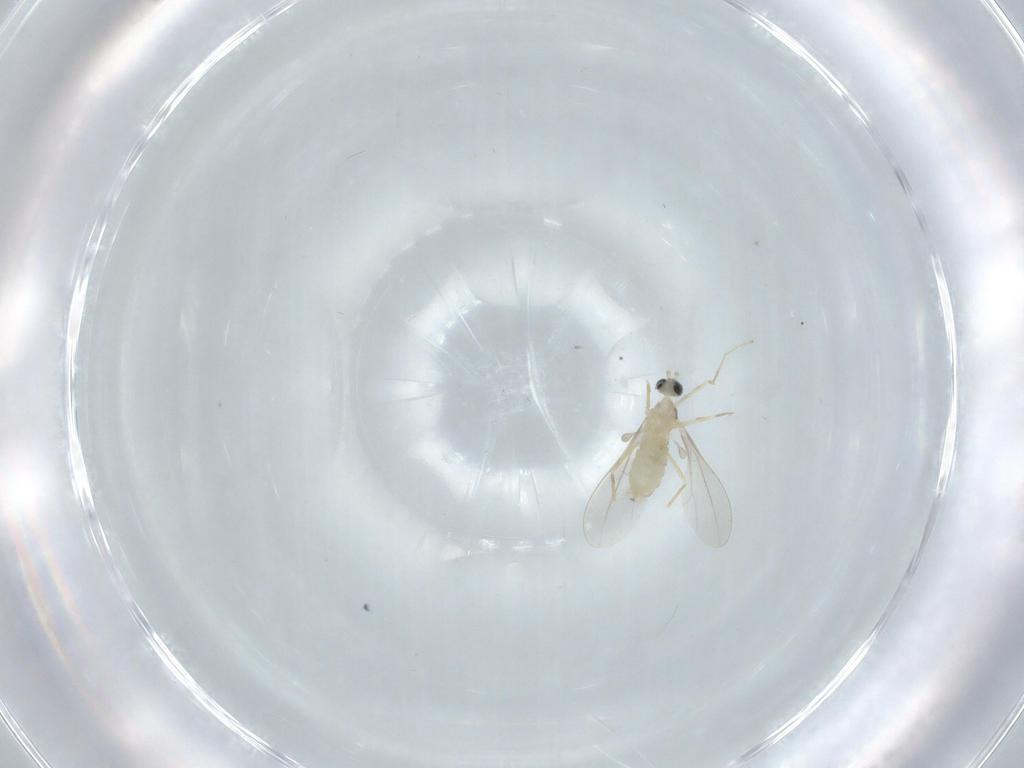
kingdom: Animalia
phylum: Arthropoda
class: Insecta
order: Diptera
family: Cecidomyiidae
